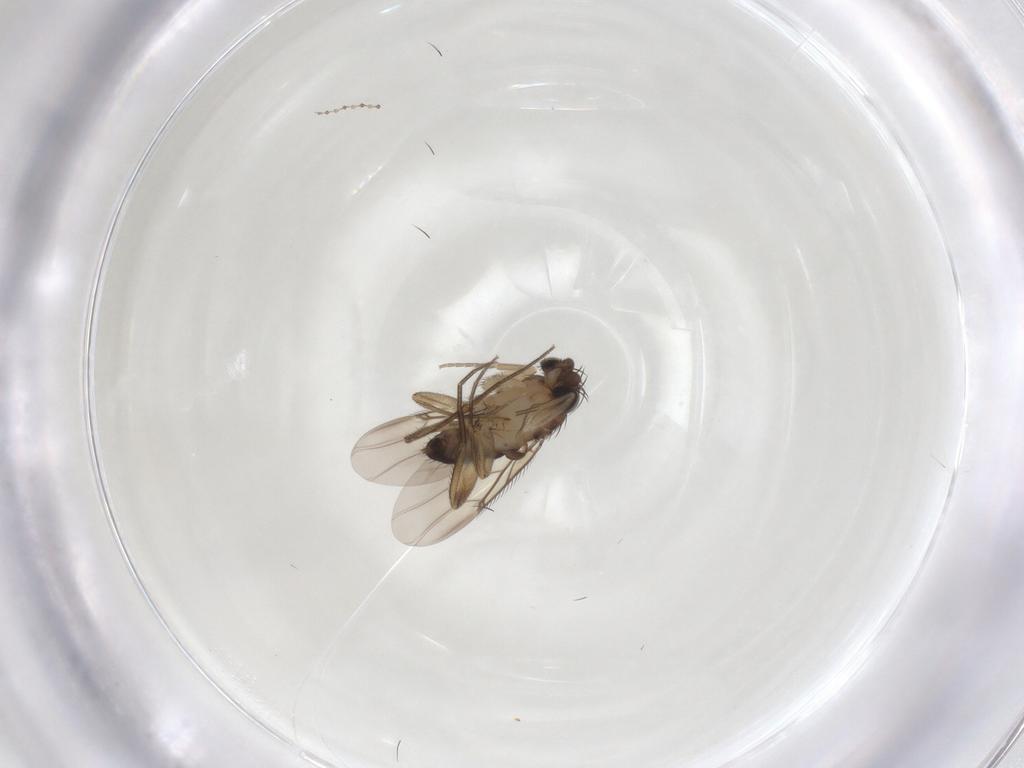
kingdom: Animalia
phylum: Arthropoda
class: Insecta
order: Diptera
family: Phoridae
